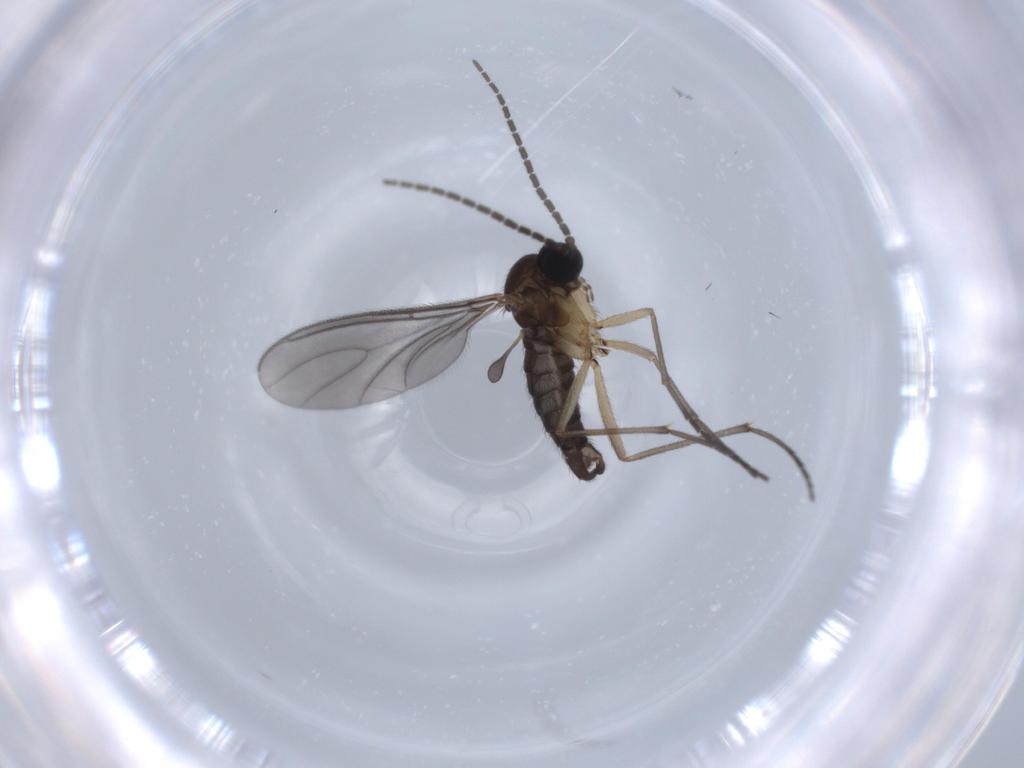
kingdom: Animalia
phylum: Arthropoda
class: Insecta
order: Diptera
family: Sciaridae
